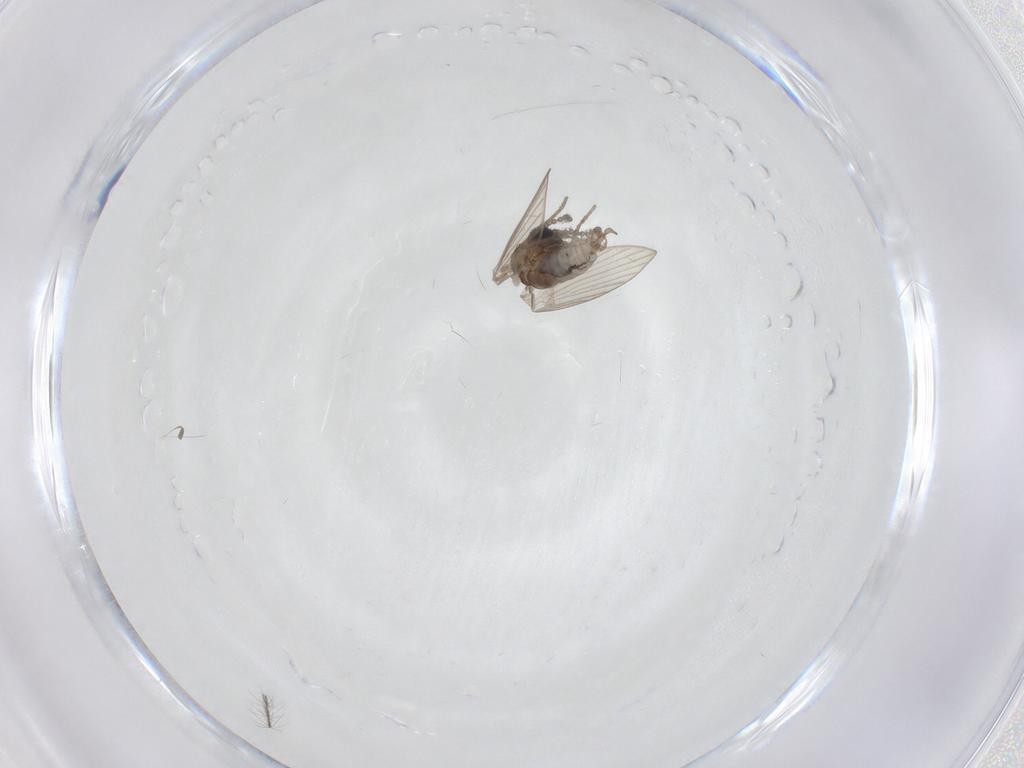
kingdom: Animalia
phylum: Arthropoda
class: Insecta
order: Diptera
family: Psychodidae
